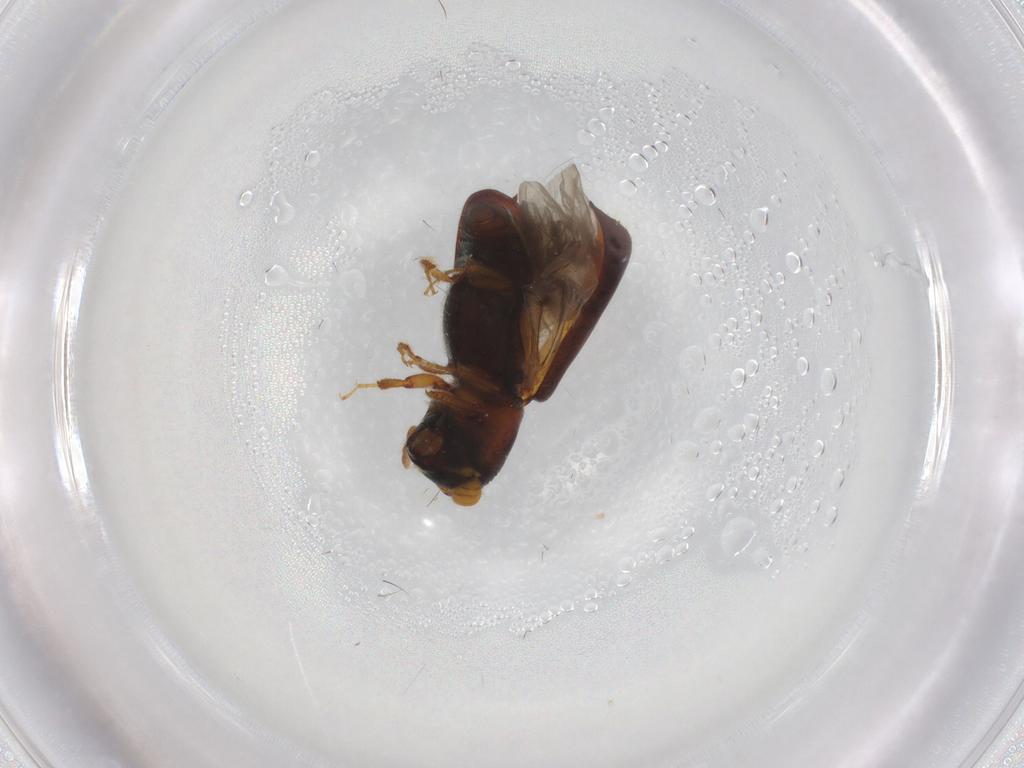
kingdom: Animalia
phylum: Arthropoda
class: Insecta
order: Coleoptera
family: Curculionidae
